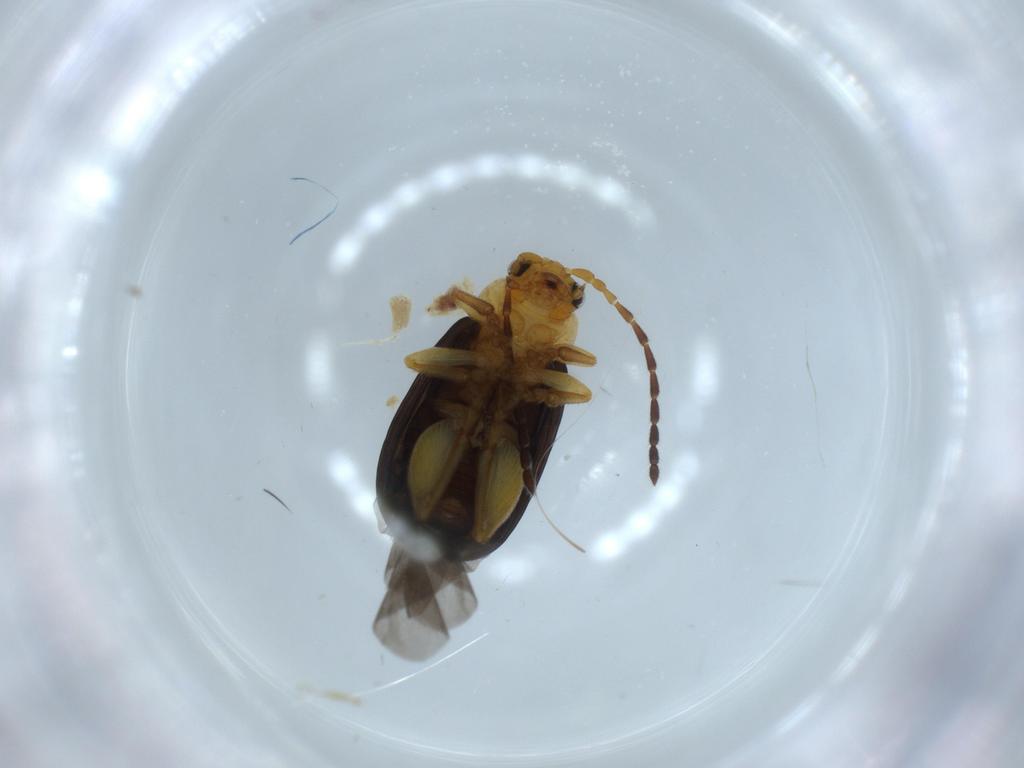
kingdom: Animalia
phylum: Arthropoda
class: Insecta
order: Coleoptera
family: Chrysomelidae
